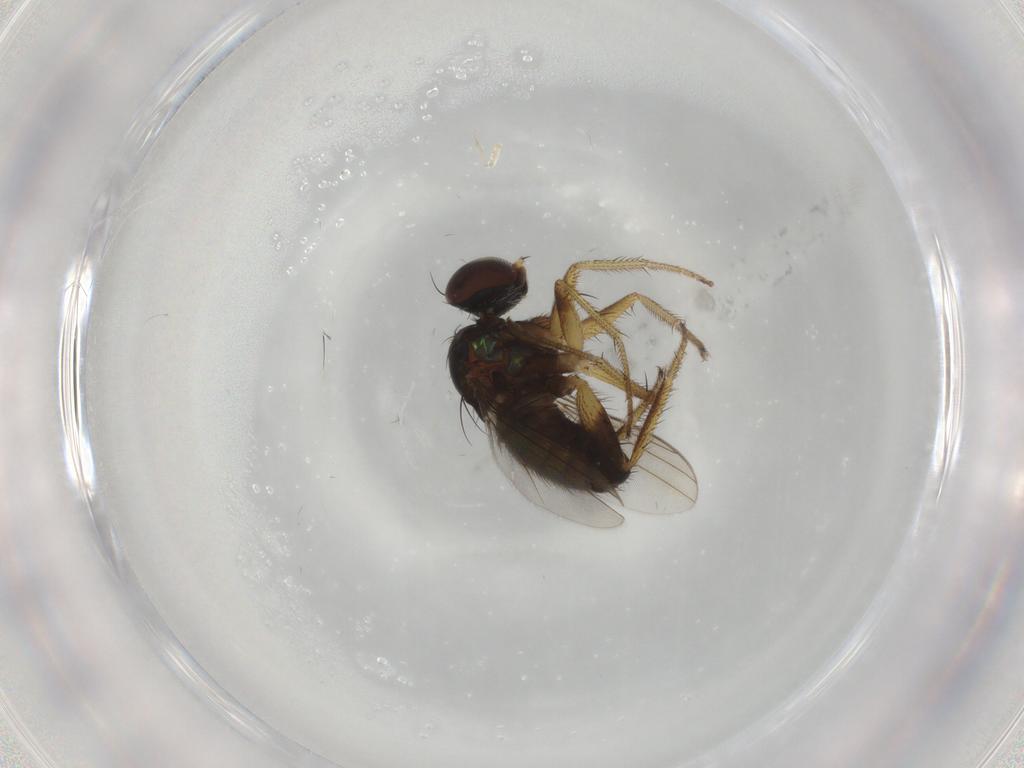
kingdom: Animalia
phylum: Arthropoda
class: Insecta
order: Diptera
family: Dolichopodidae
